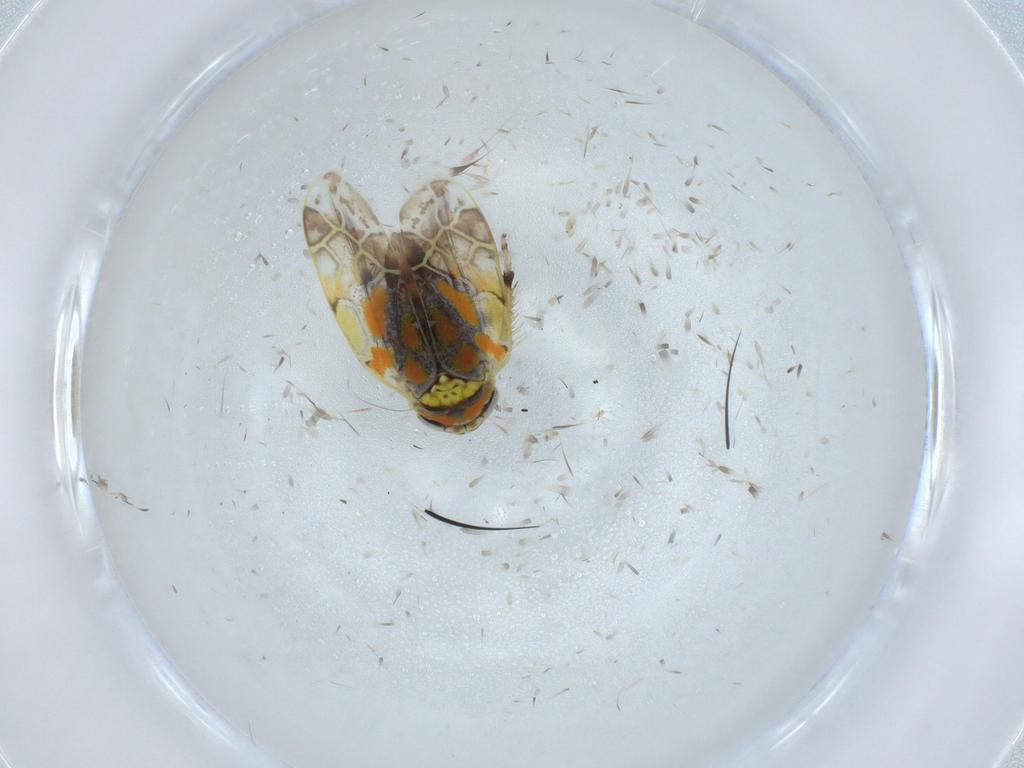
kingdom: Animalia
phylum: Arthropoda
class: Insecta
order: Hemiptera
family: Cicadellidae
